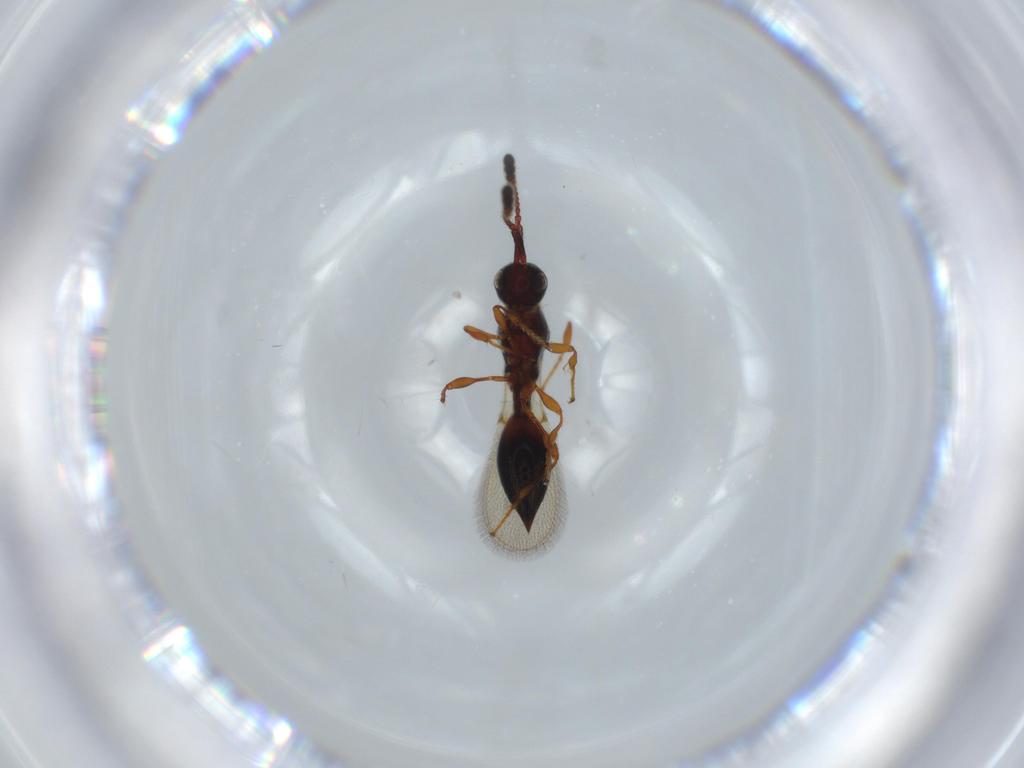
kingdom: Animalia
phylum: Arthropoda
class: Insecta
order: Hymenoptera
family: Diapriidae
